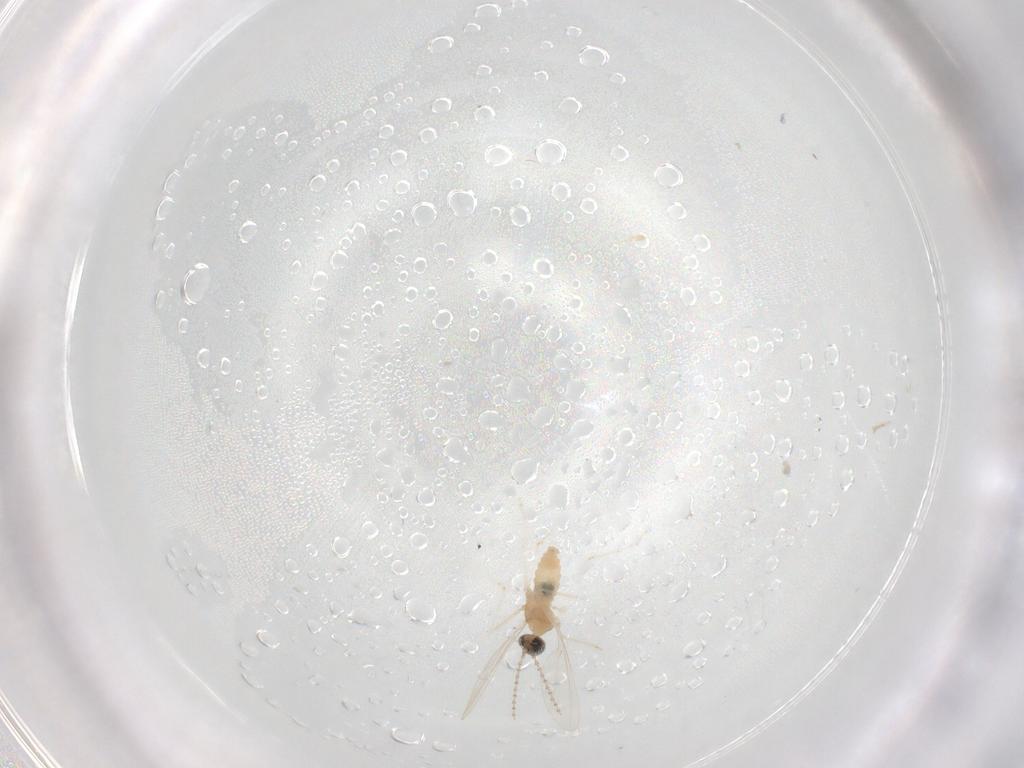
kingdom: Animalia
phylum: Arthropoda
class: Insecta
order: Diptera
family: Cecidomyiidae
